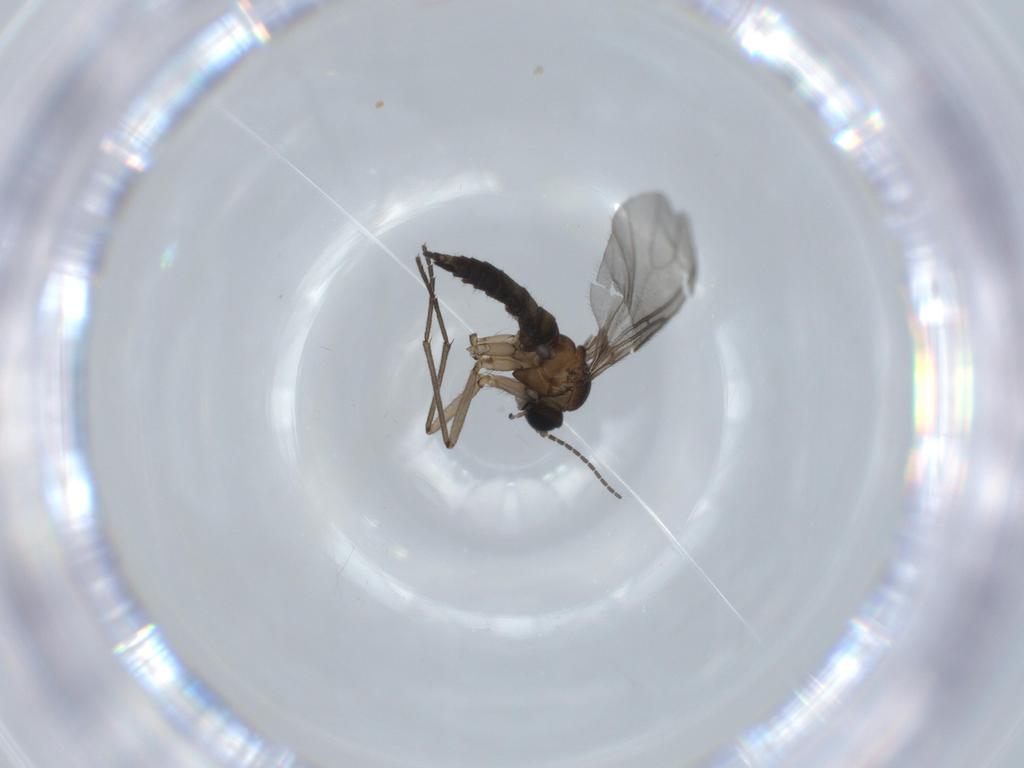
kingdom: Animalia
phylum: Arthropoda
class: Insecta
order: Diptera
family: Sciaridae
